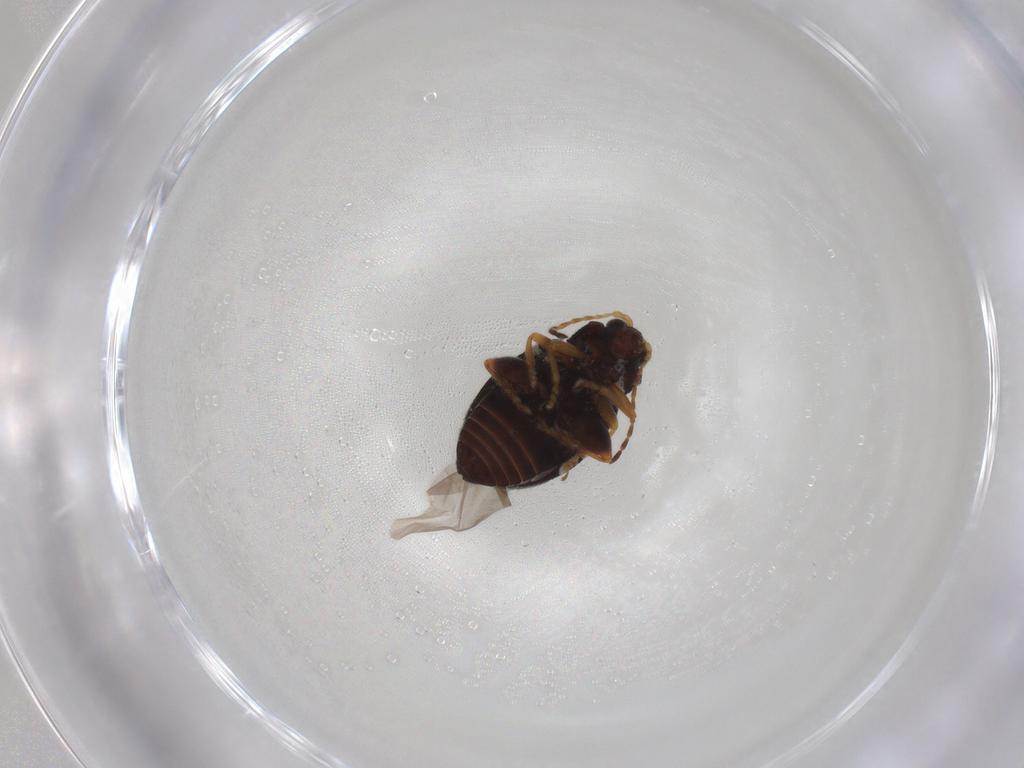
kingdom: Animalia
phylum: Arthropoda
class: Insecta
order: Coleoptera
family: Chrysomelidae
